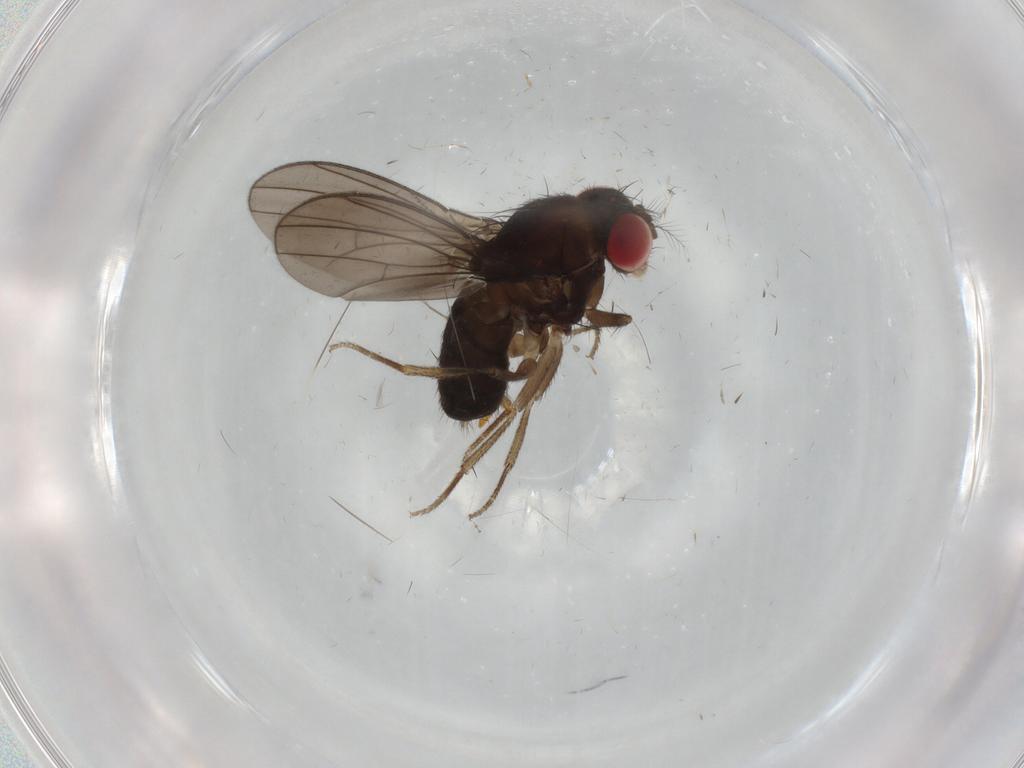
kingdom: Animalia
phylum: Arthropoda
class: Insecta
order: Diptera
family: Drosophilidae
